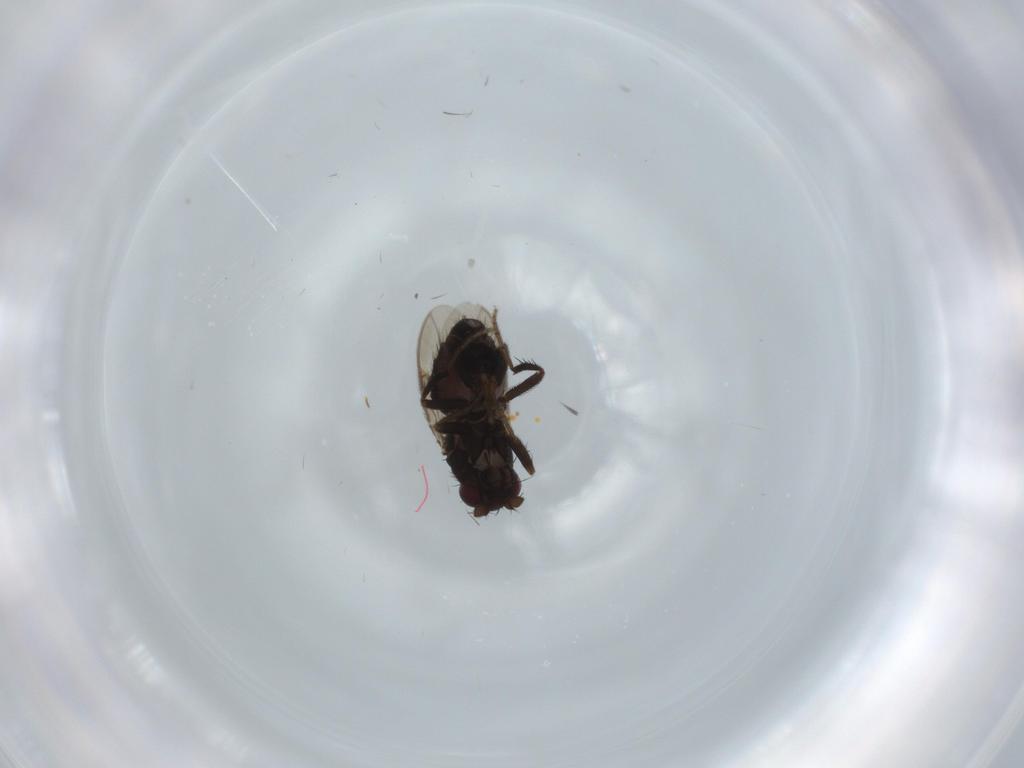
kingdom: Animalia
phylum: Arthropoda
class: Insecta
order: Diptera
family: Sphaeroceridae
